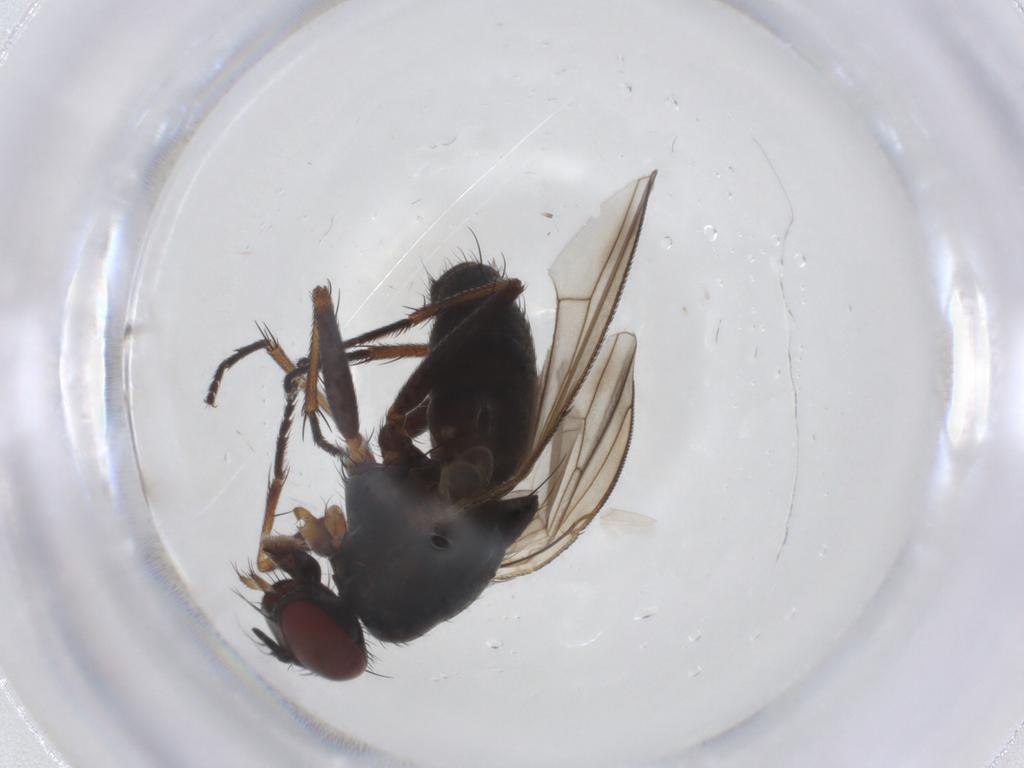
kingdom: Animalia
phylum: Arthropoda
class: Insecta
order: Diptera
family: Muscidae
